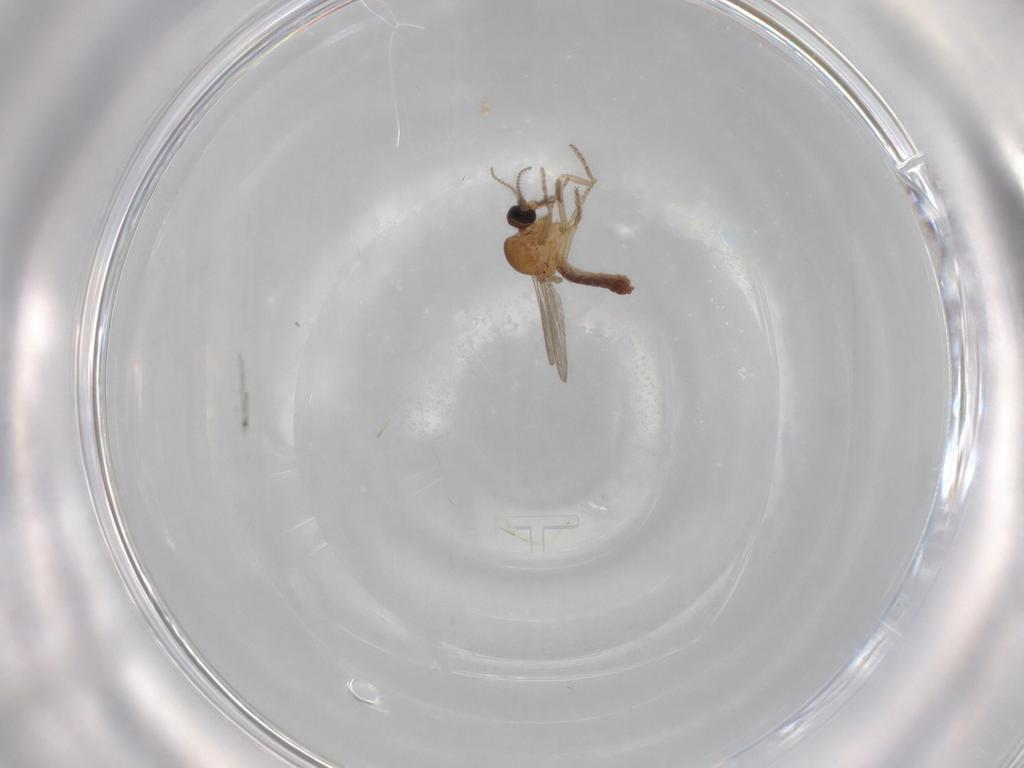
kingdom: Animalia
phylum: Arthropoda
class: Insecta
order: Diptera
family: Ceratopogonidae
